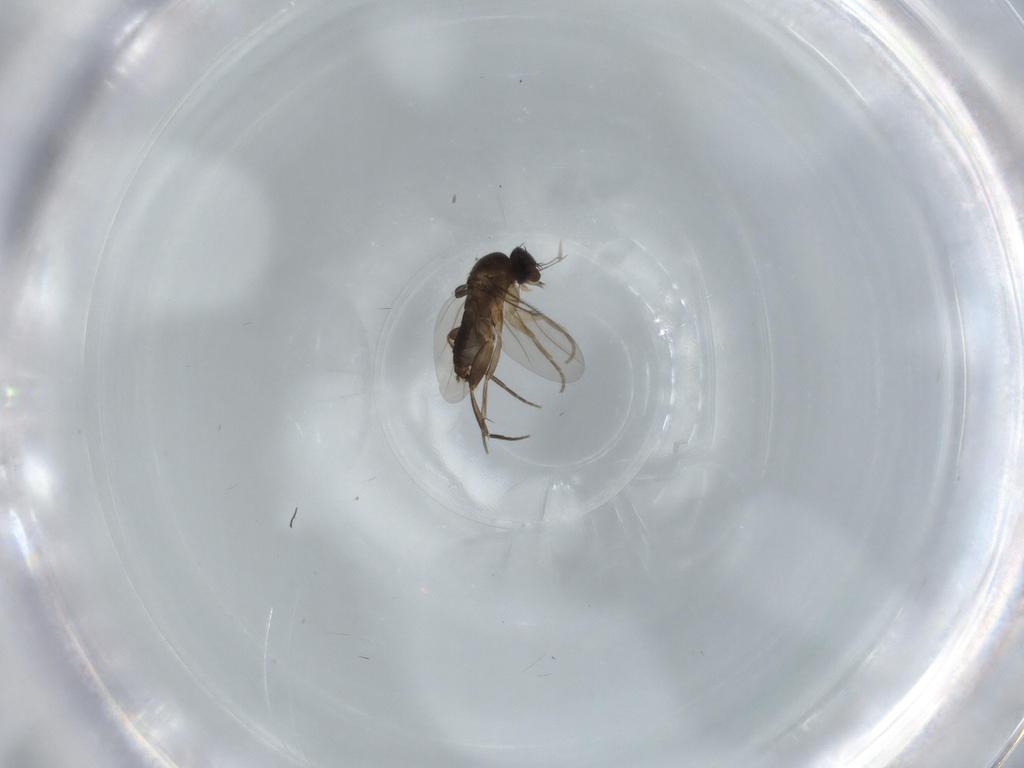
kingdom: Animalia
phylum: Arthropoda
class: Insecta
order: Diptera
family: Phoridae
